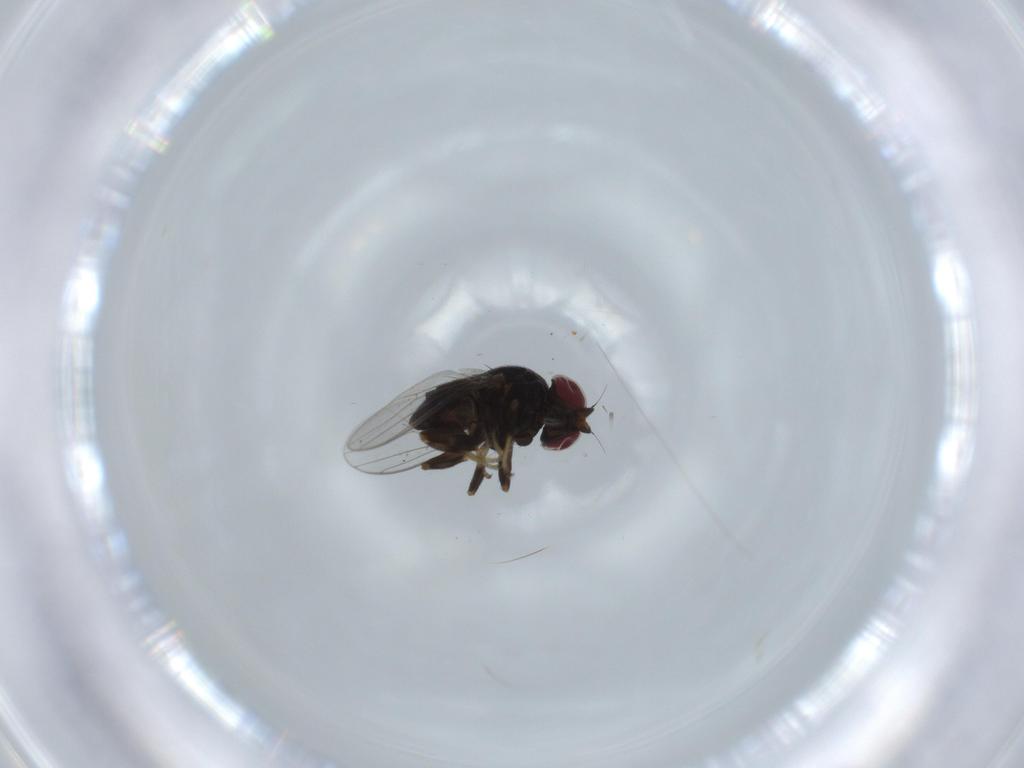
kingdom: Animalia
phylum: Arthropoda
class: Insecta
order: Diptera
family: Chloropidae
